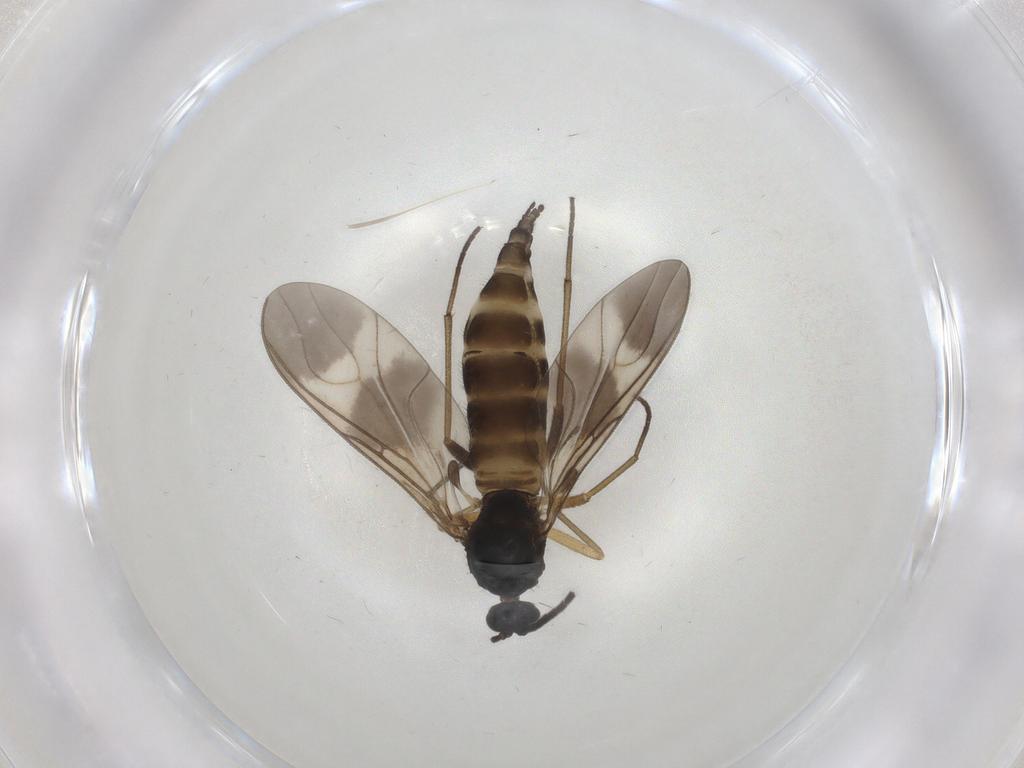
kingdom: Animalia
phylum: Arthropoda
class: Insecta
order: Diptera
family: Sciaridae
